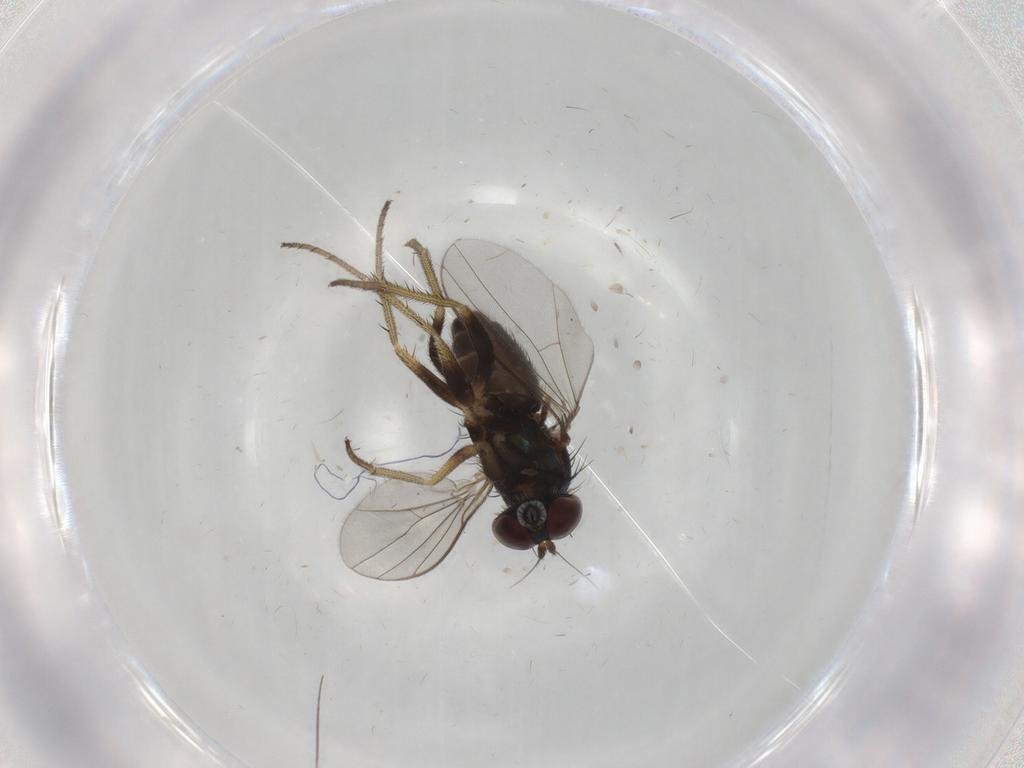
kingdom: Animalia
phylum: Arthropoda
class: Insecta
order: Diptera
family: Chironomidae
